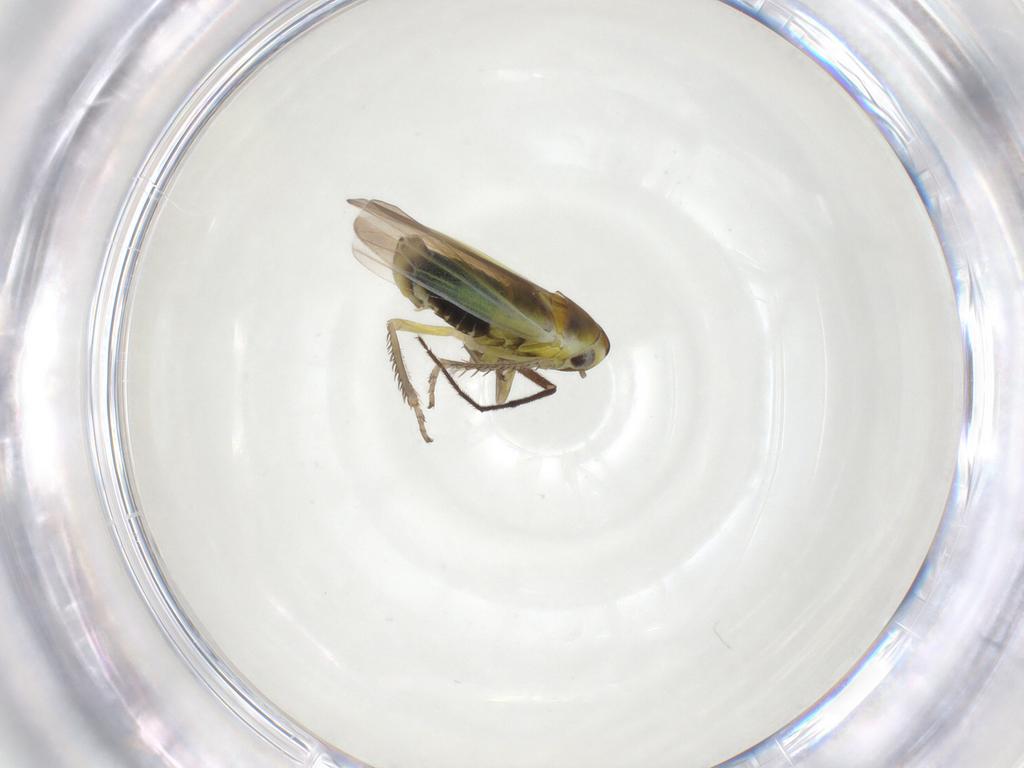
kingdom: Animalia
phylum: Arthropoda
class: Insecta
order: Hemiptera
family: Cicadellidae
